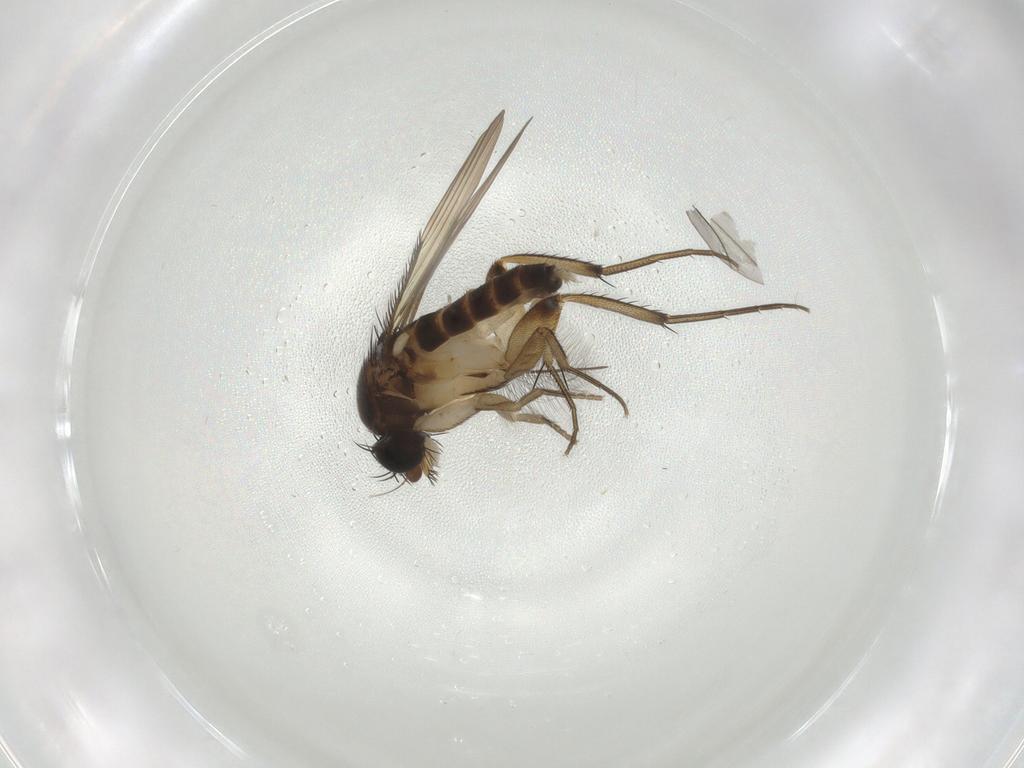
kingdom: Animalia
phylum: Arthropoda
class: Insecta
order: Diptera
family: Phoridae
